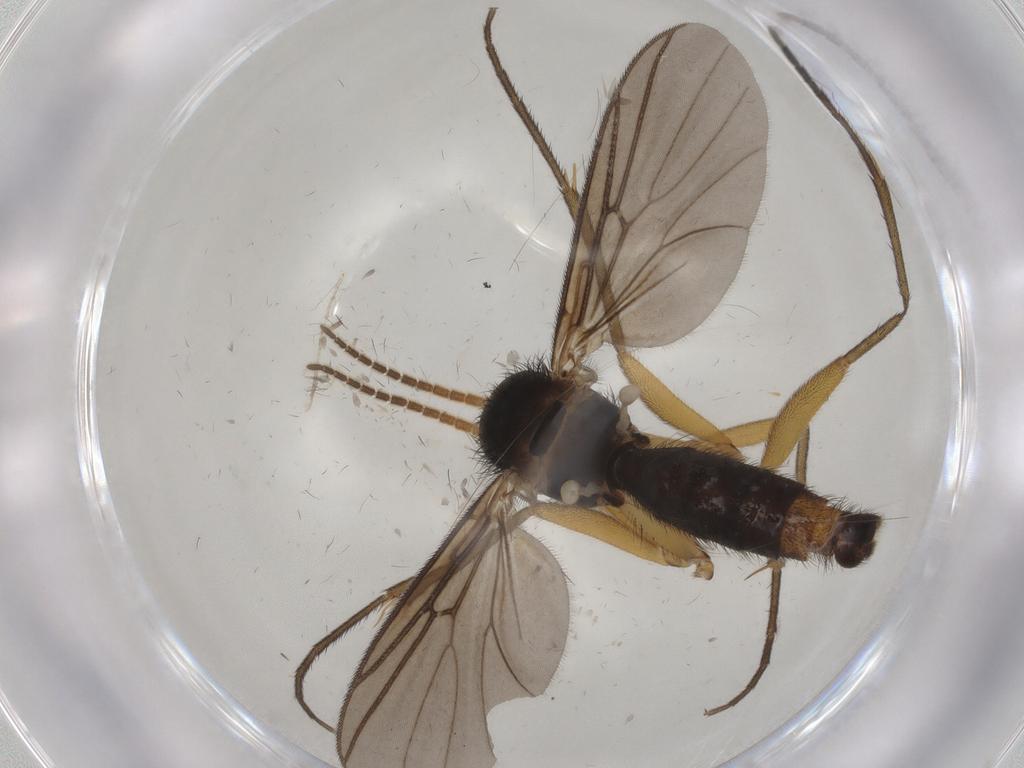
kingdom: Animalia
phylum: Arthropoda
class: Insecta
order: Diptera
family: Mycetophilidae
